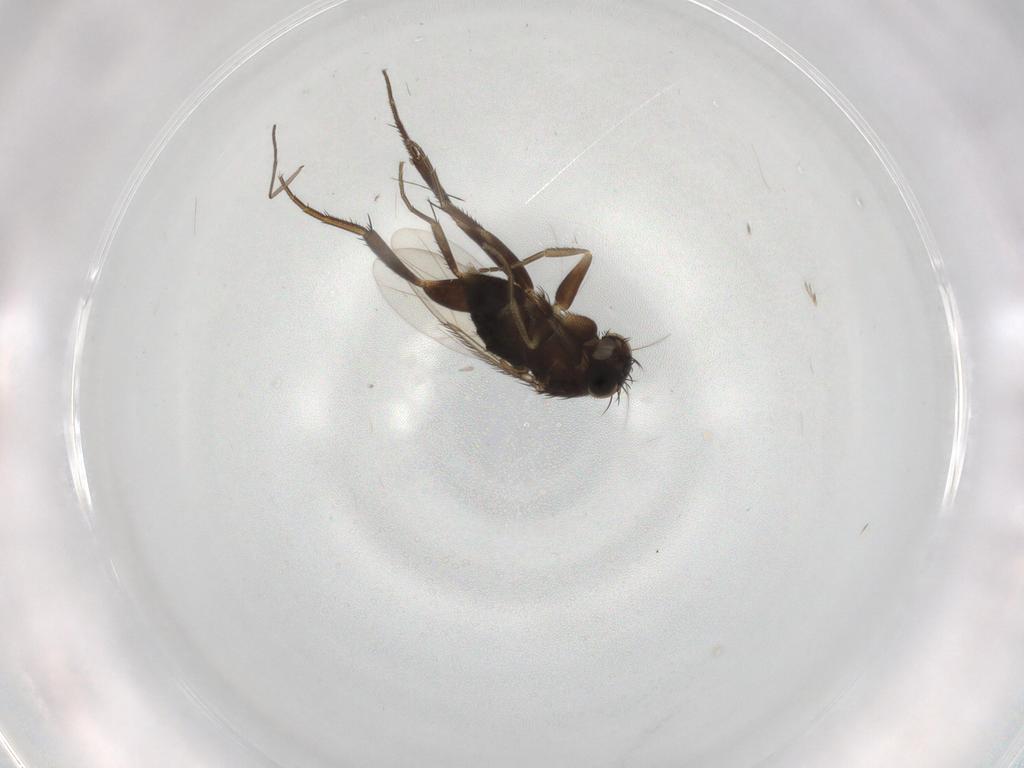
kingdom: Animalia
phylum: Arthropoda
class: Insecta
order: Diptera
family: Phoridae
